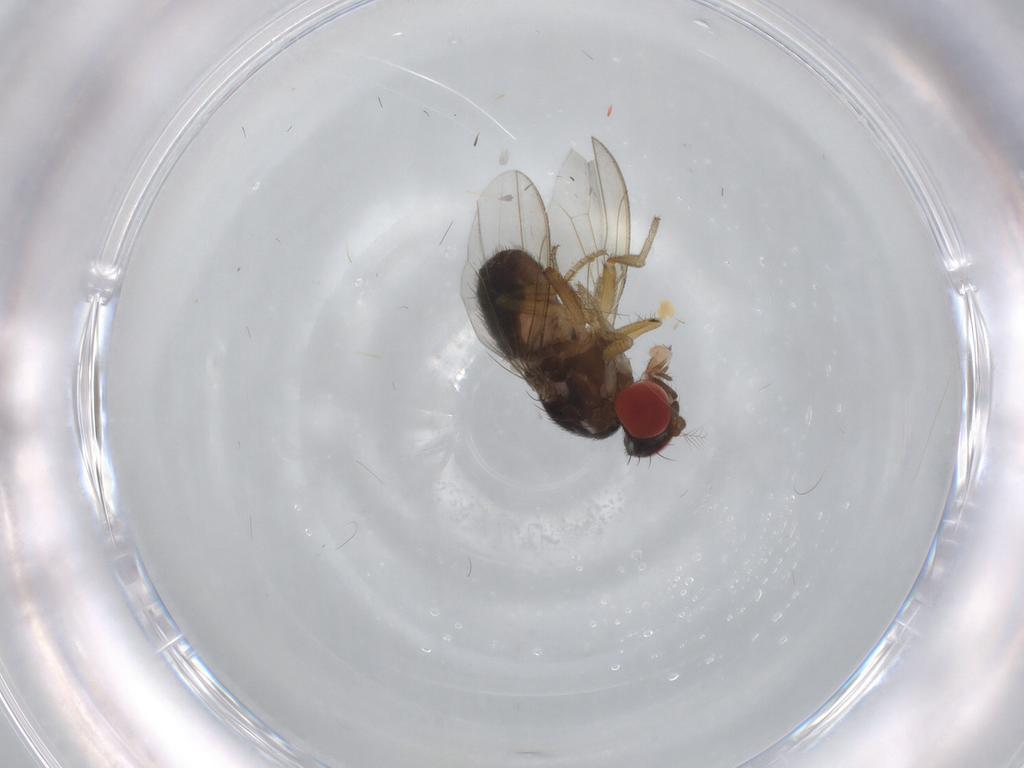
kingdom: Animalia
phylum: Arthropoda
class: Insecta
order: Diptera
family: Drosophilidae
